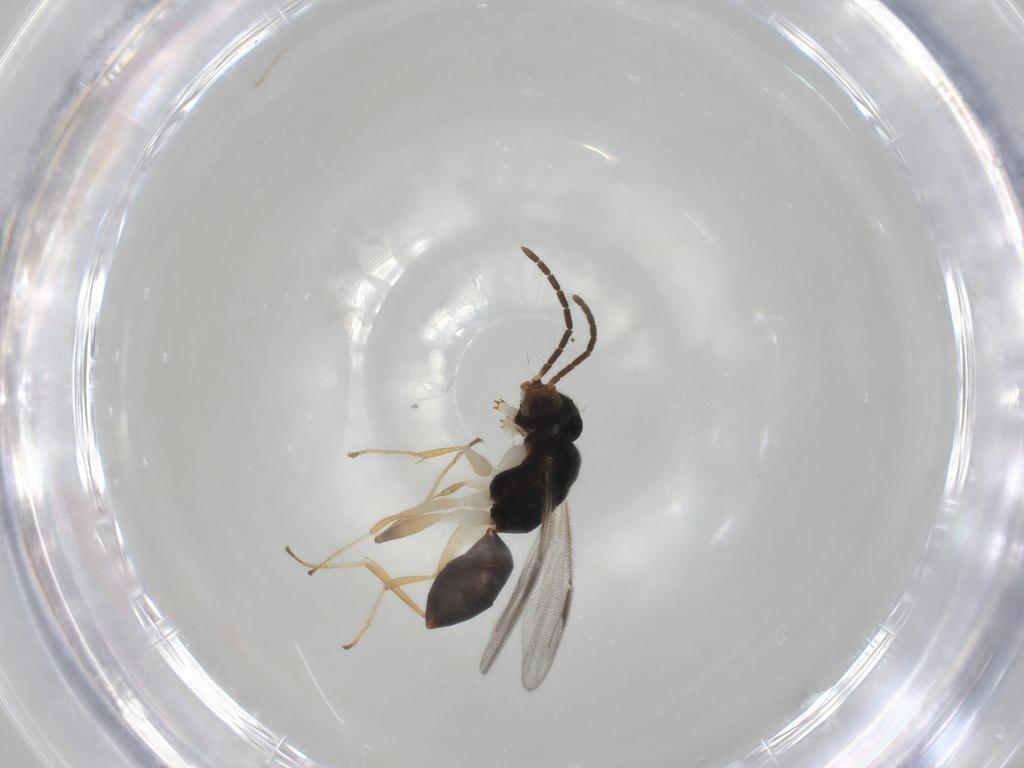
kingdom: Animalia
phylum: Arthropoda
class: Insecta
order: Hymenoptera
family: Dryinidae
